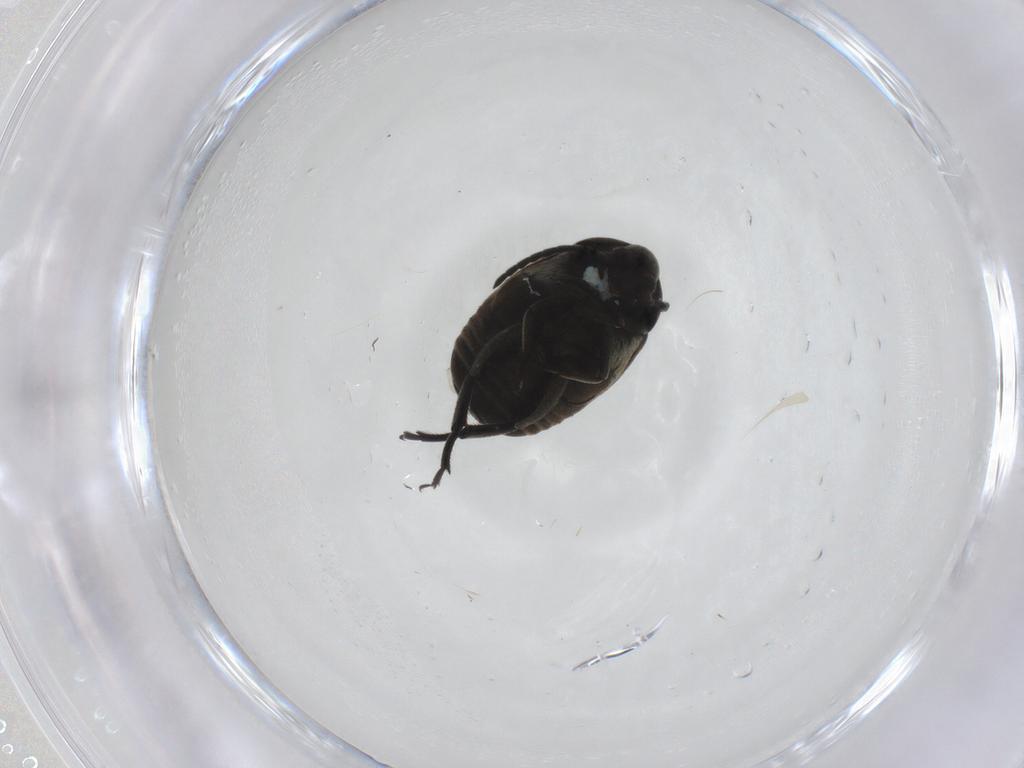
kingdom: Animalia
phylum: Arthropoda
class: Insecta
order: Coleoptera
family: Chrysomelidae
